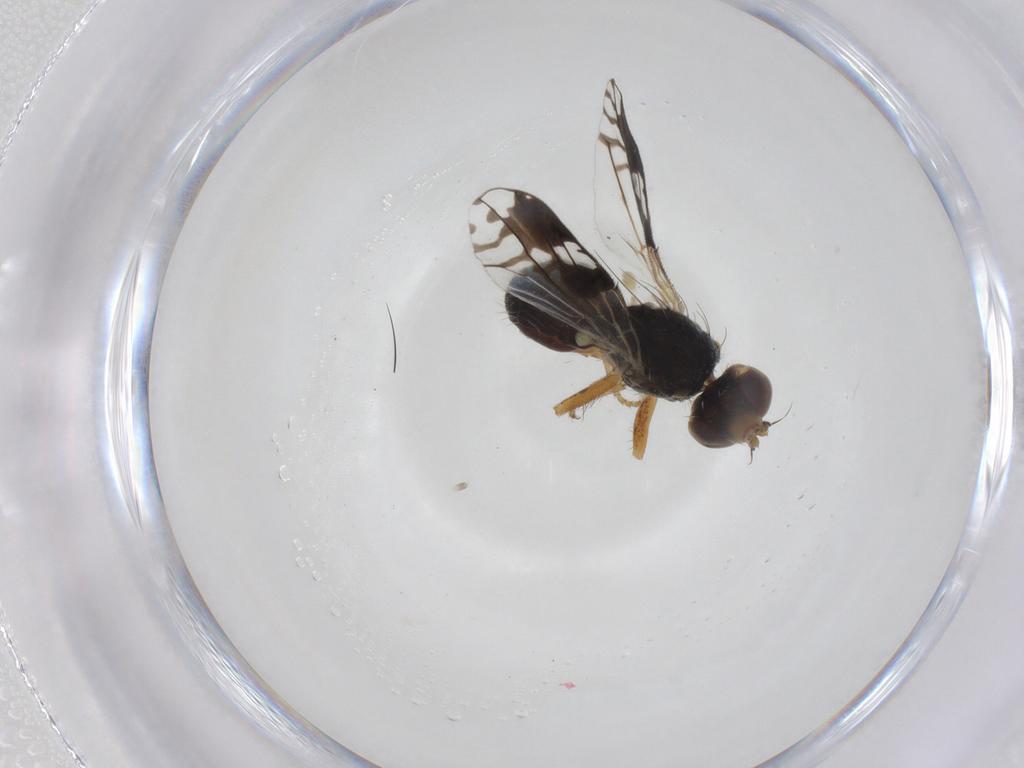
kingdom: Animalia
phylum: Arthropoda
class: Insecta
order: Diptera
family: Tephritidae
